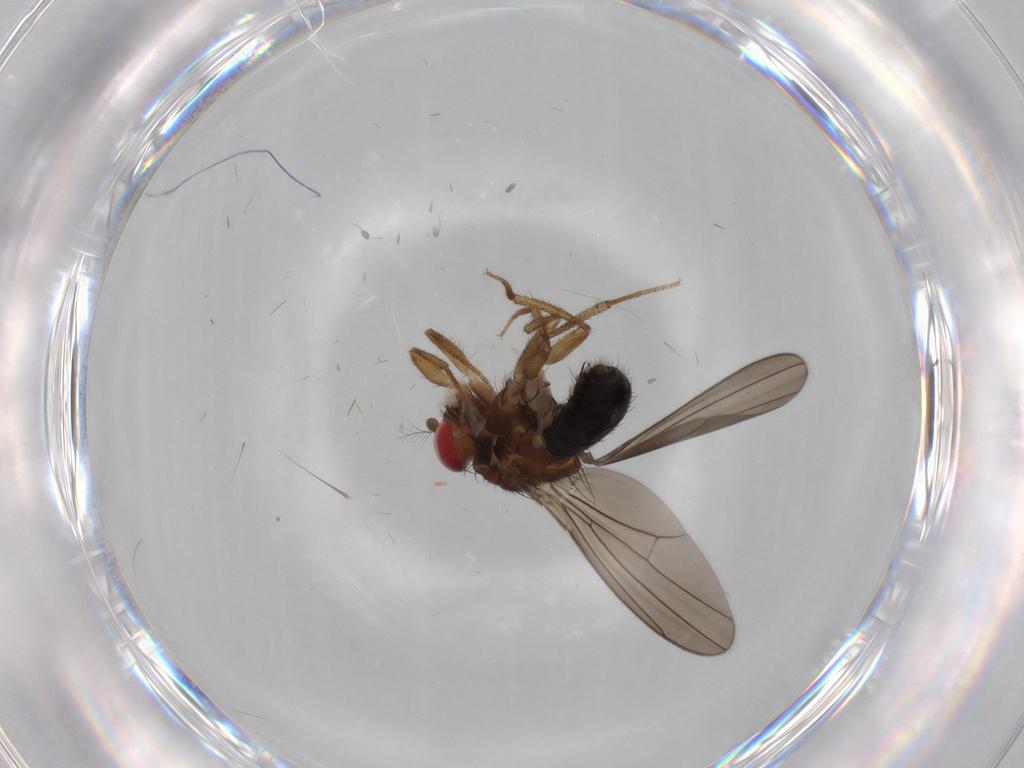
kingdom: Animalia
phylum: Arthropoda
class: Insecta
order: Diptera
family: Drosophilidae
